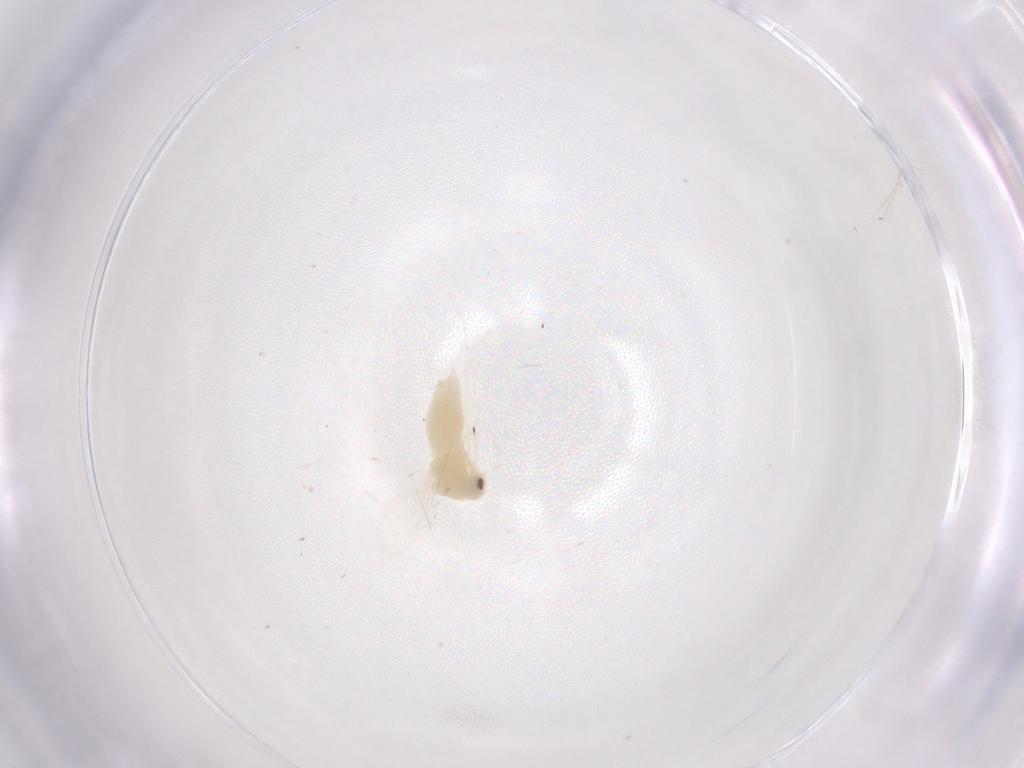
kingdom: Animalia
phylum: Arthropoda
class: Insecta
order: Hemiptera
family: Aleyrodidae
